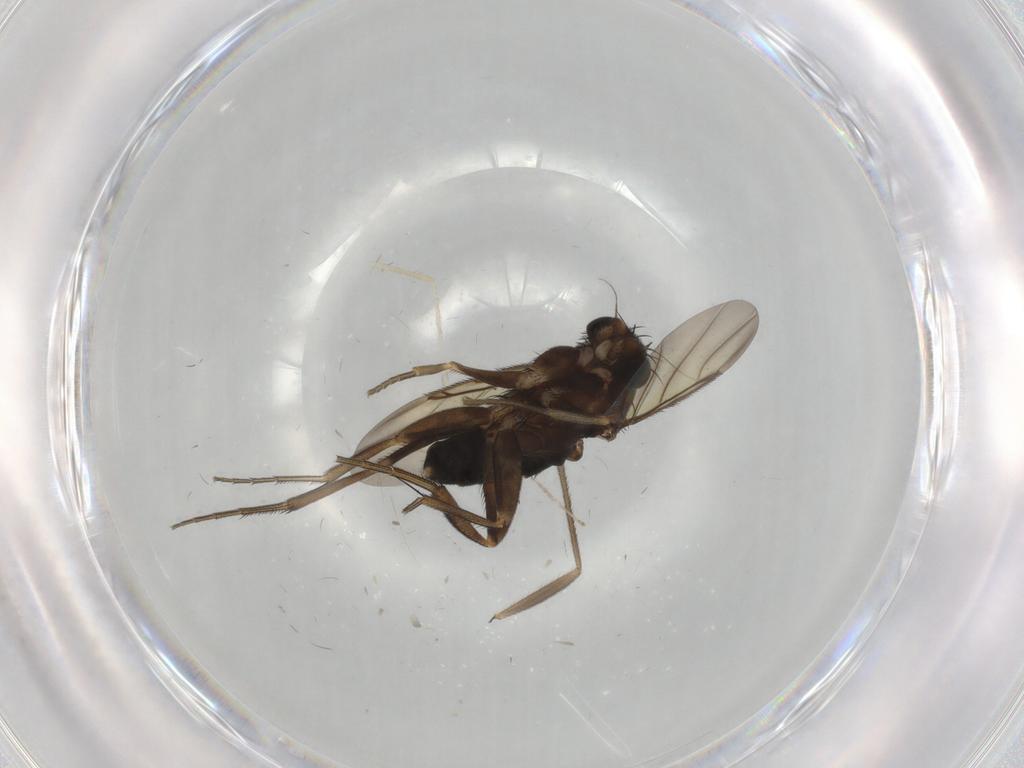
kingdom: Animalia
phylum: Arthropoda
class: Insecta
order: Diptera
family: Phoridae
